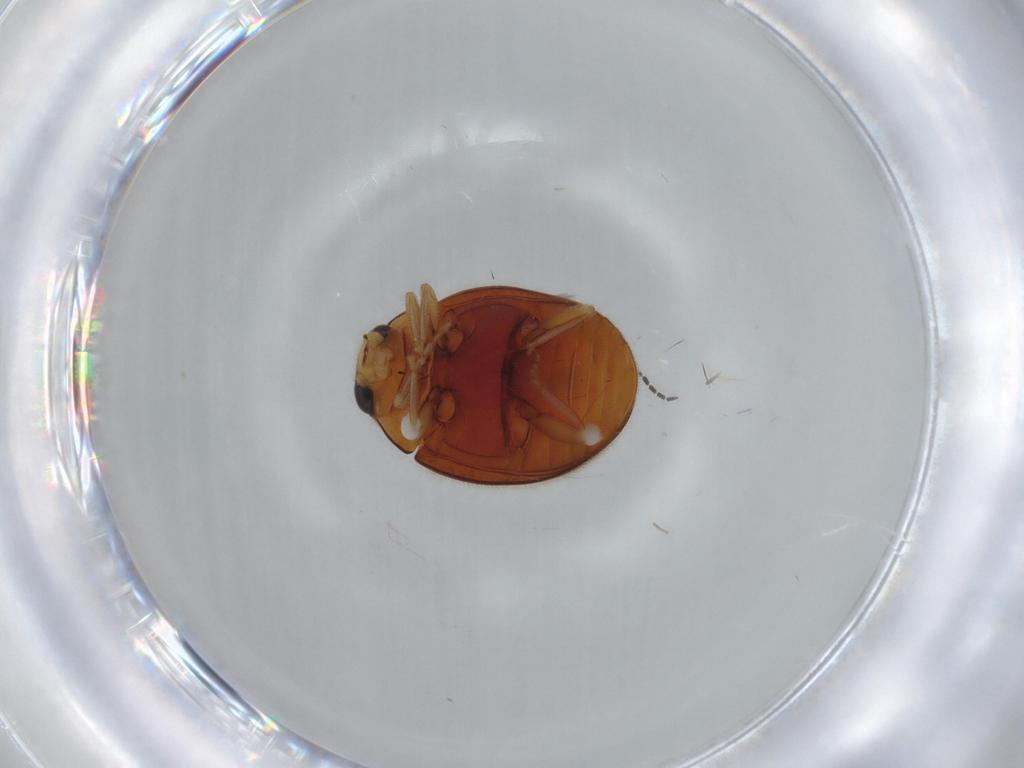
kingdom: Animalia
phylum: Arthropoda
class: Insecta
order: Coleoptera
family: Coccinellidae
